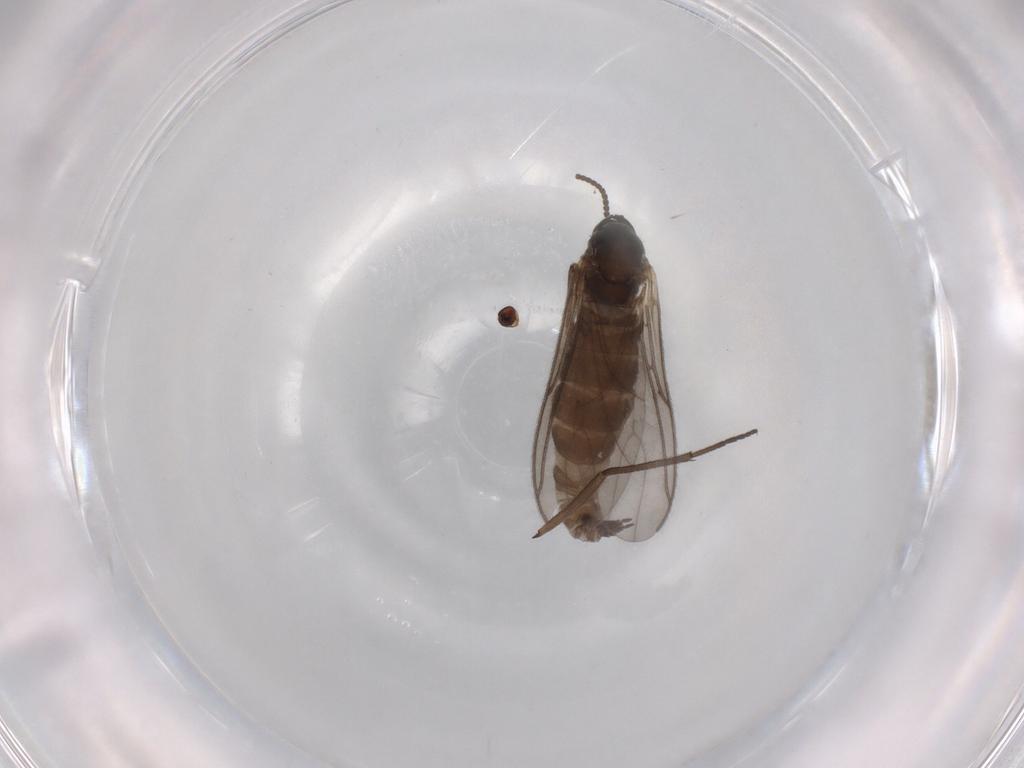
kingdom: Animalia
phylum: Arthropoda
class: Insecta
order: Diptera
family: Sciaridae
